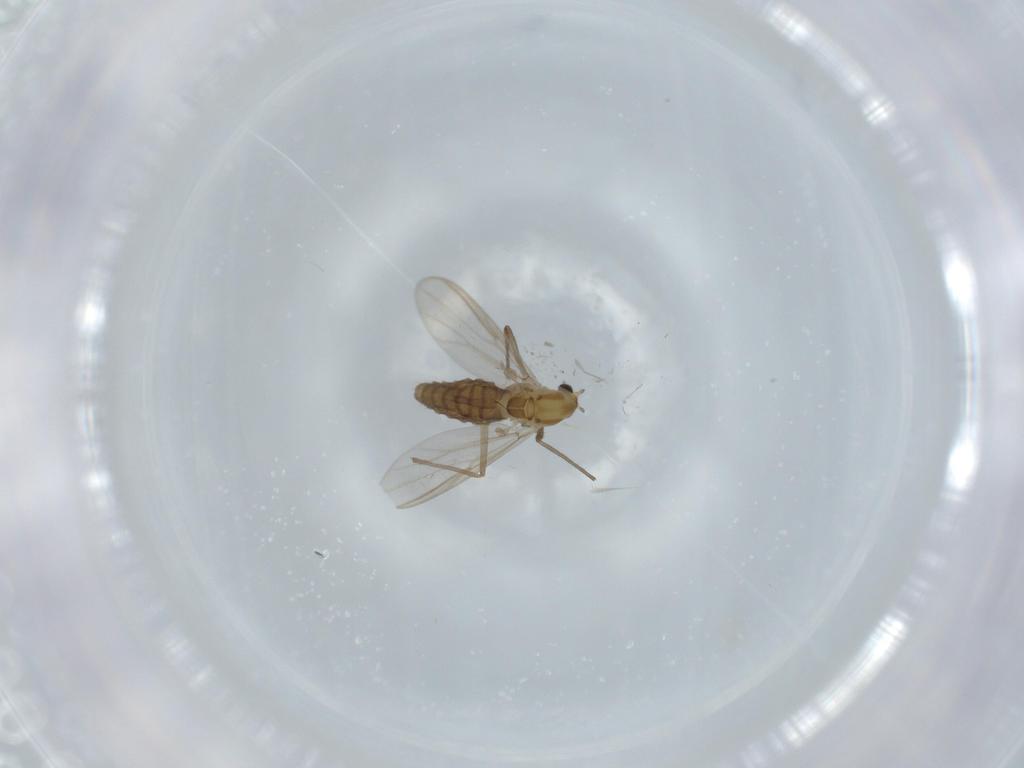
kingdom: Animalia
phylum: Arthropoda
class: Insecta
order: Diptera
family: Chironomidae
